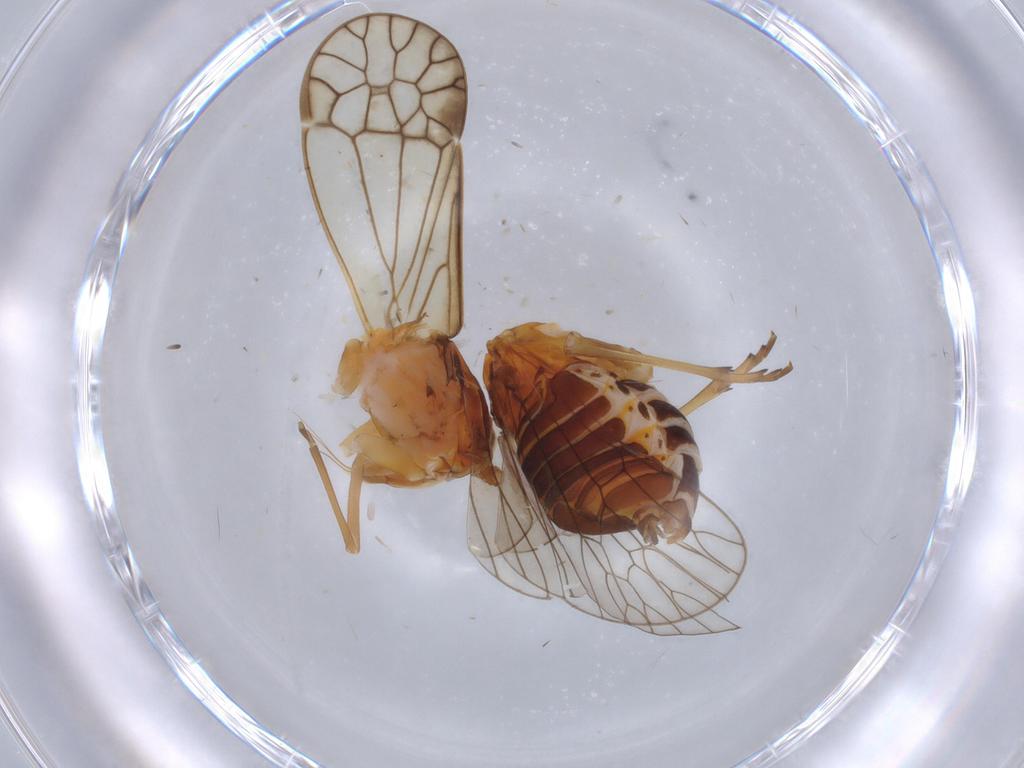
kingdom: Animalia
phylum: Arthropoda
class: Insecta
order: Hemiptera
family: Kinnaridae
